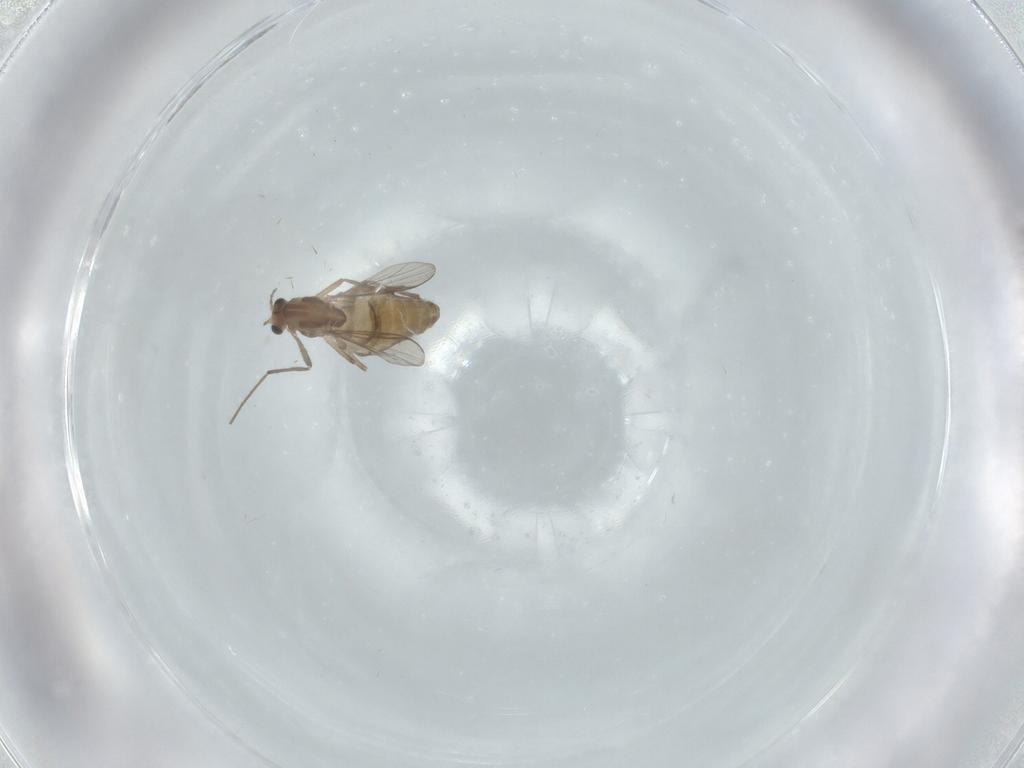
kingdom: Animalia
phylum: Arthropoda
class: Insecta
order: Diptera
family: Chironomidae
